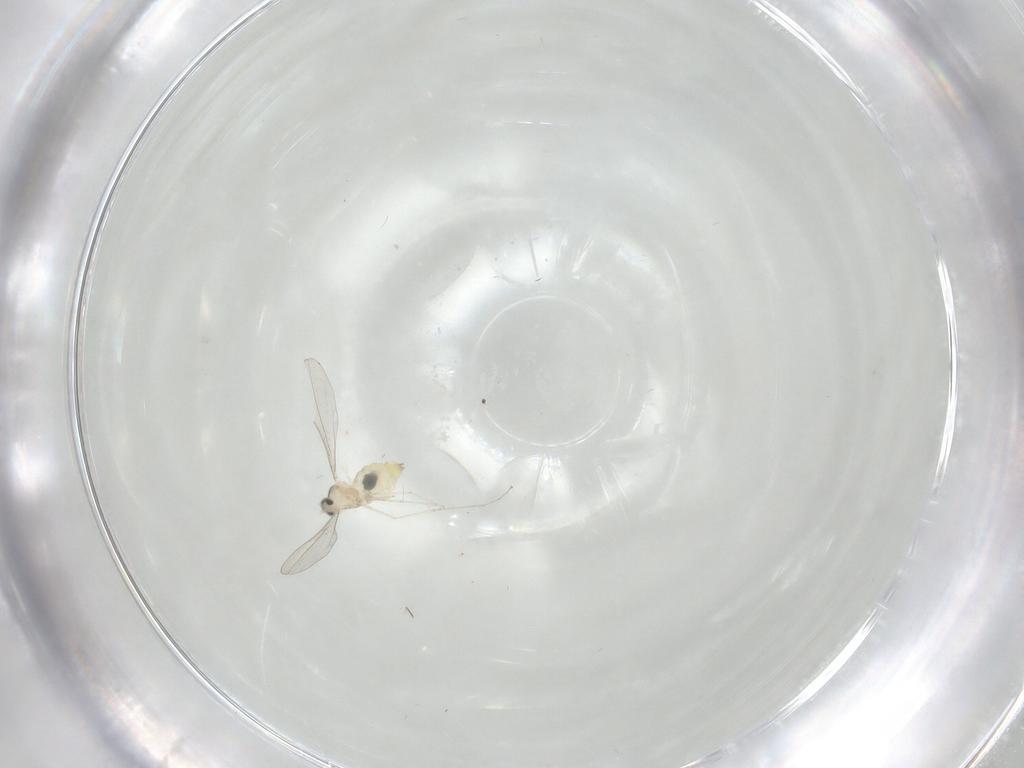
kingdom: Animalia
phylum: Arthropoda
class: Insecta
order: Diptera
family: Cecidomyiidae
